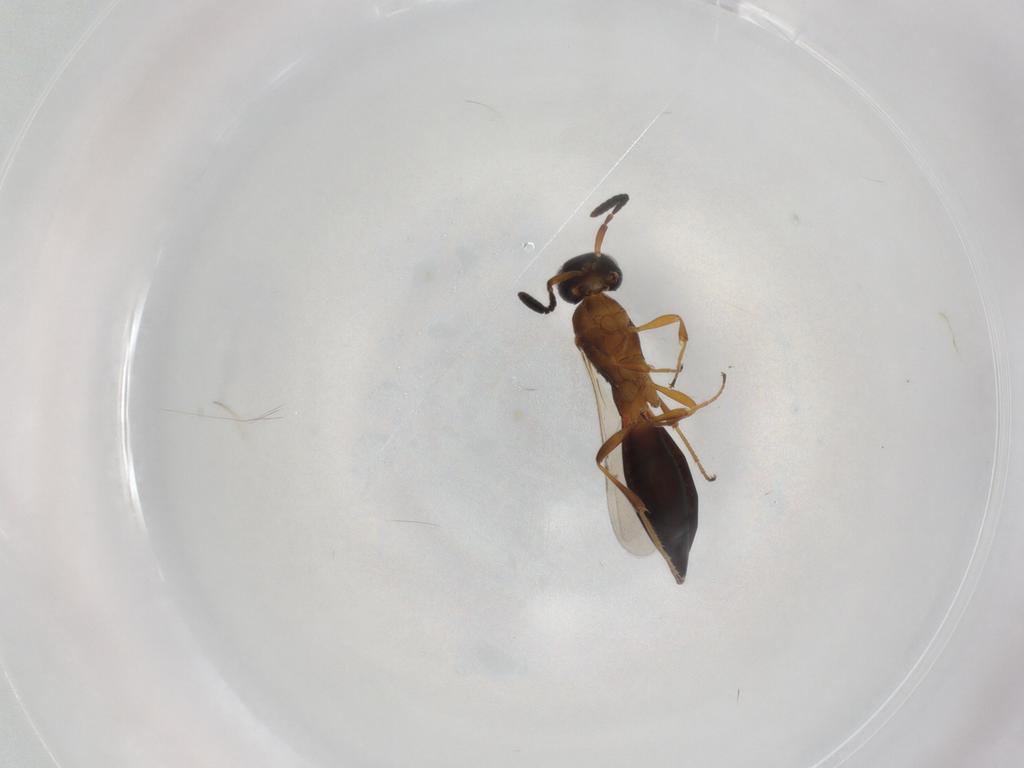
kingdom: Animalia
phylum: Arthropoda
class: Insecta
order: Hymenoptera
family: Scelionidae
